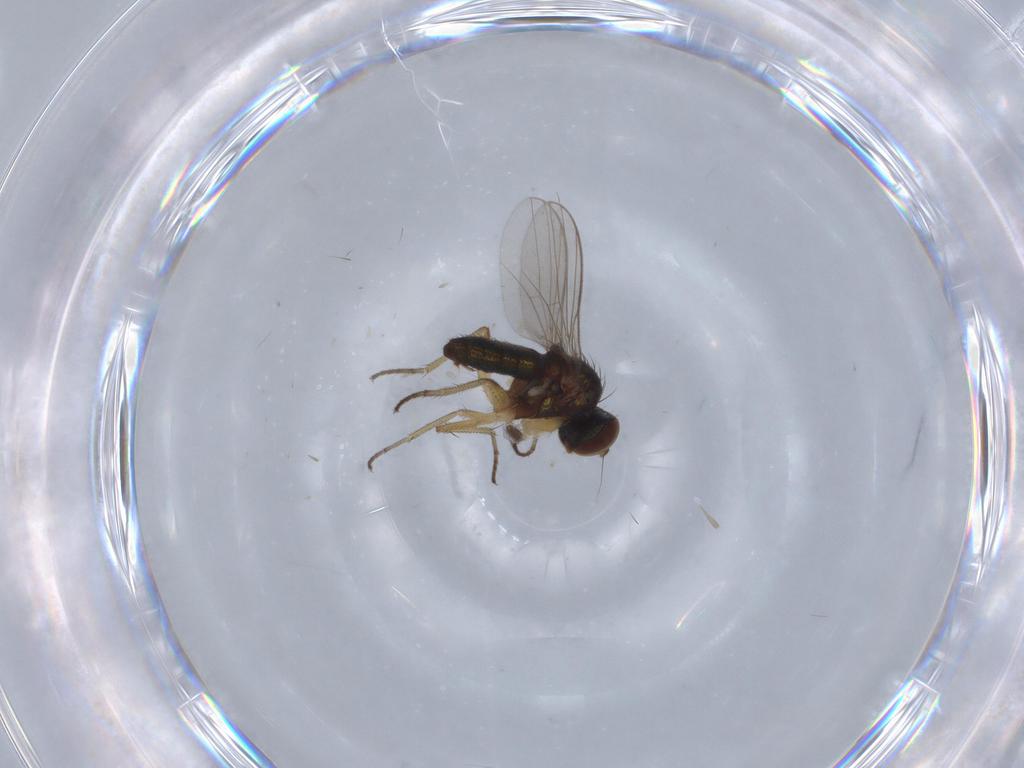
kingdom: Animalia
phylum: Arthropoda
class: Insecta
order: Diptera
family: Ceratopogonidae
